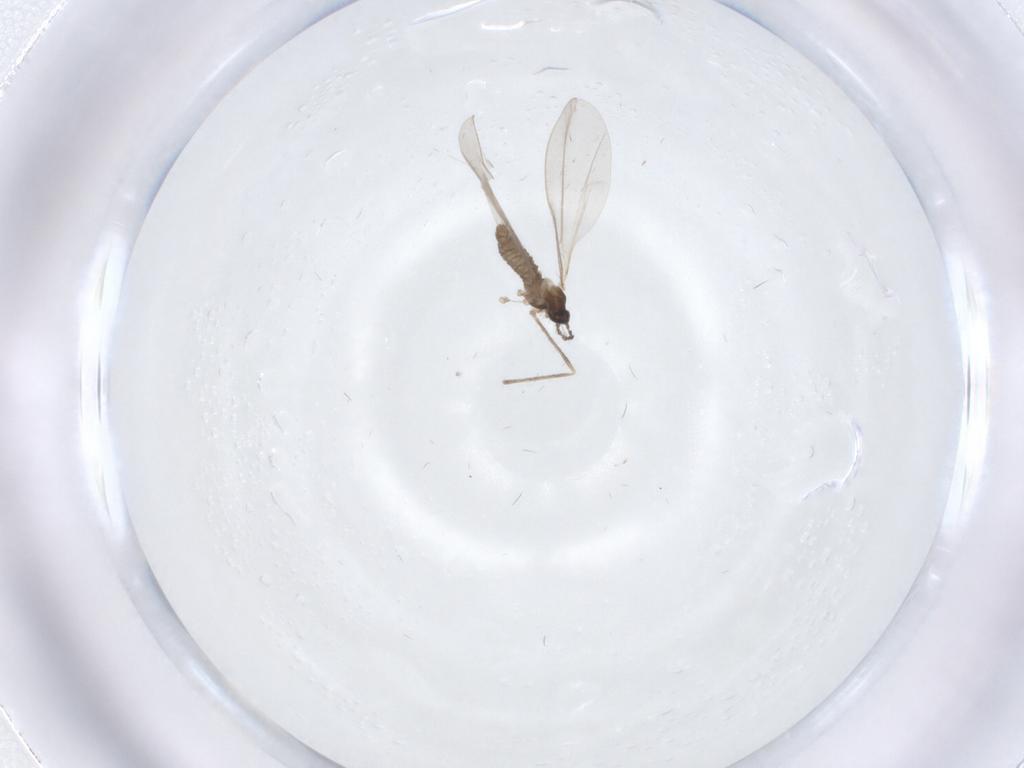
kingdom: Animalia
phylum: Arthropoda
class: Insecta
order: Diptera
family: Cecidomyiidae
